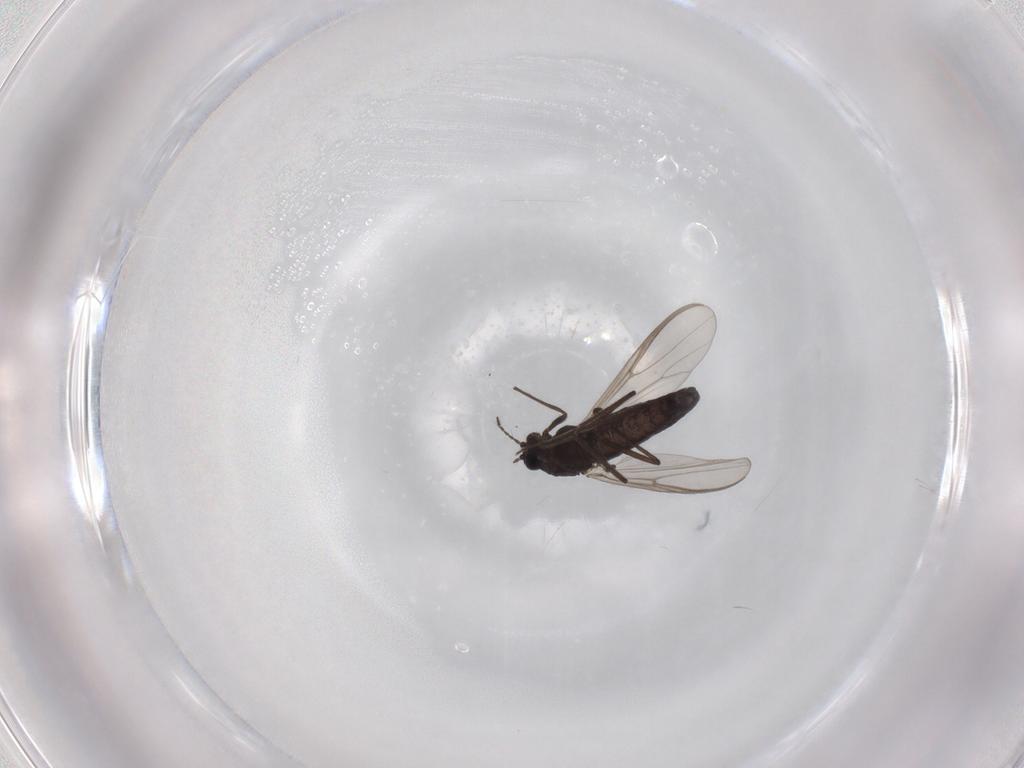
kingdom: Animalia
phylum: Arthropoda
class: Insecta
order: Diptera
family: Chironomidae
